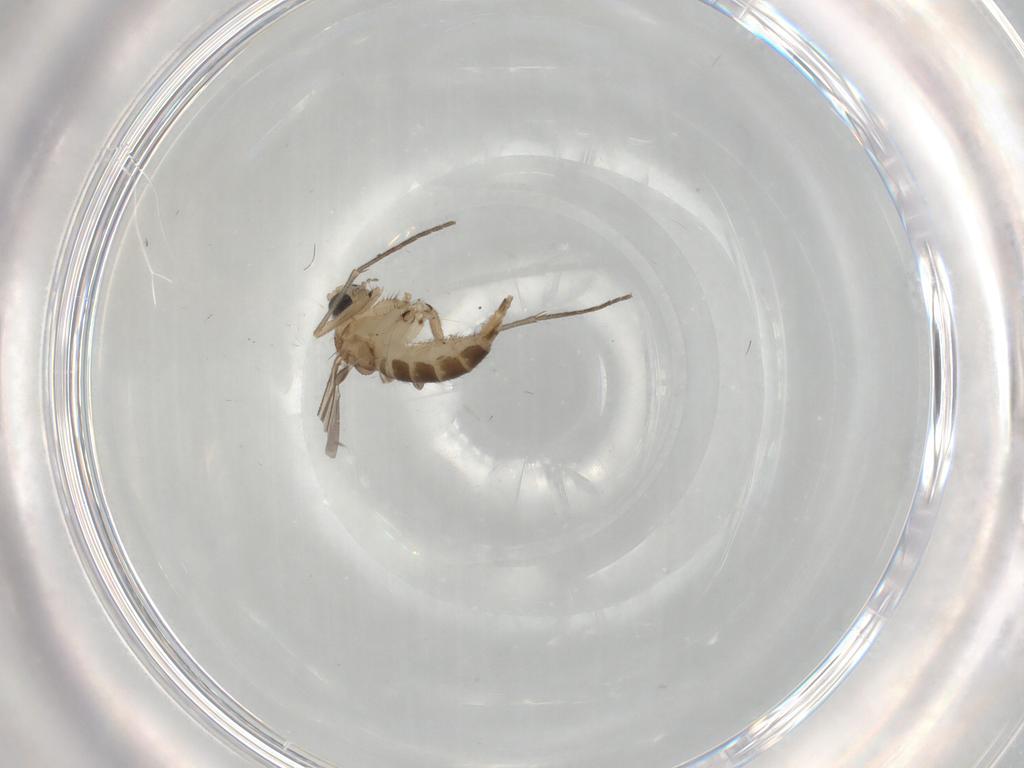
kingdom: Animalia
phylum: Arthropoda
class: Insecta
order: Diptera
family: Sciaridae
